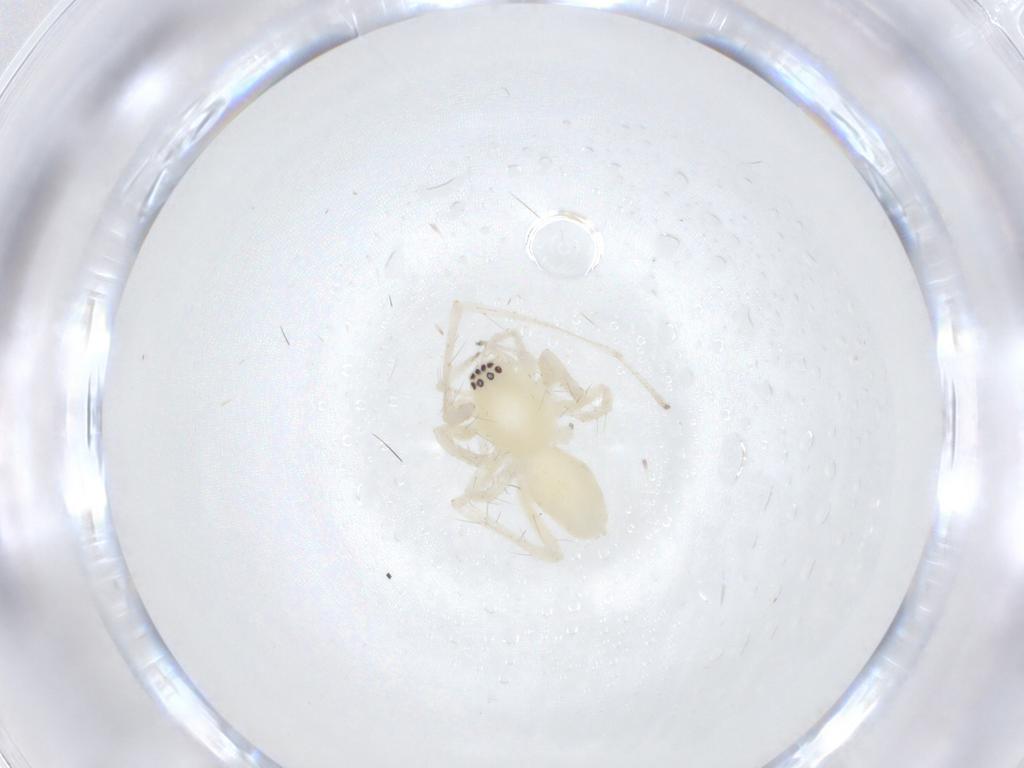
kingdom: Animalia
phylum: Arthropoda
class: Arachnida
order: Araneae
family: Anyphaenidae
